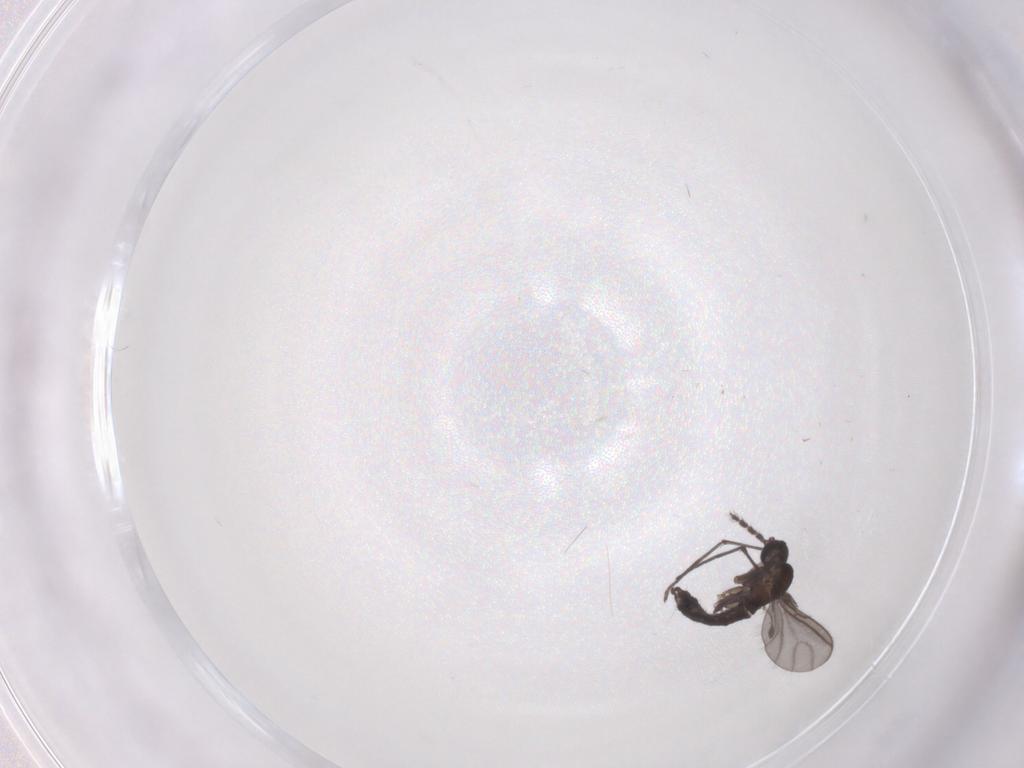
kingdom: Animalia
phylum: Arthropoda
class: Insecta
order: Diptera
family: Sciaridae
